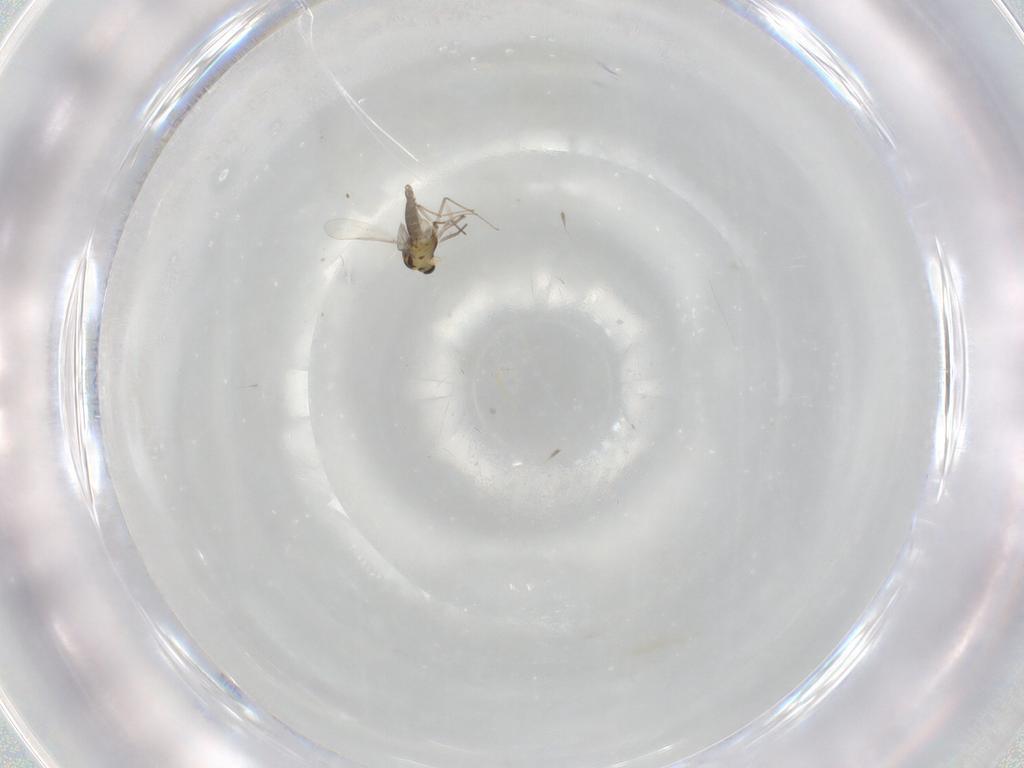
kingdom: Animalia
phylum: Arthropoda
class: Insecta
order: Diptera
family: Chironomidae
